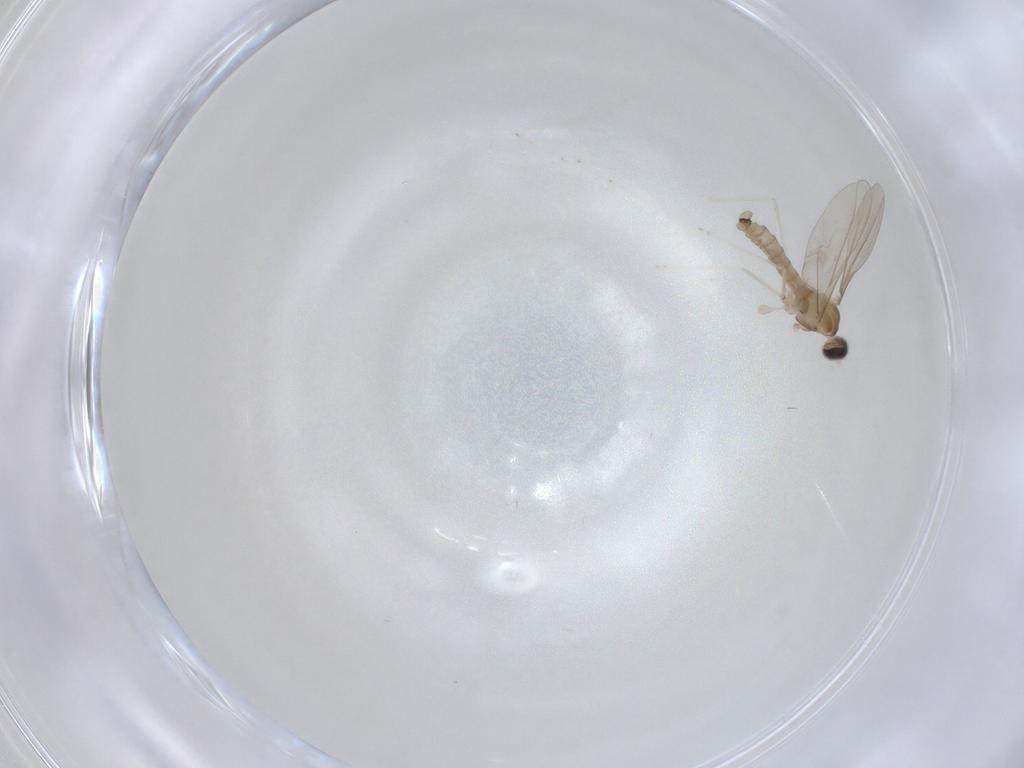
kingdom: Animalia
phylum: Arthropoda
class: Insecta
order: Diptera
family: Cecidomyiidae
